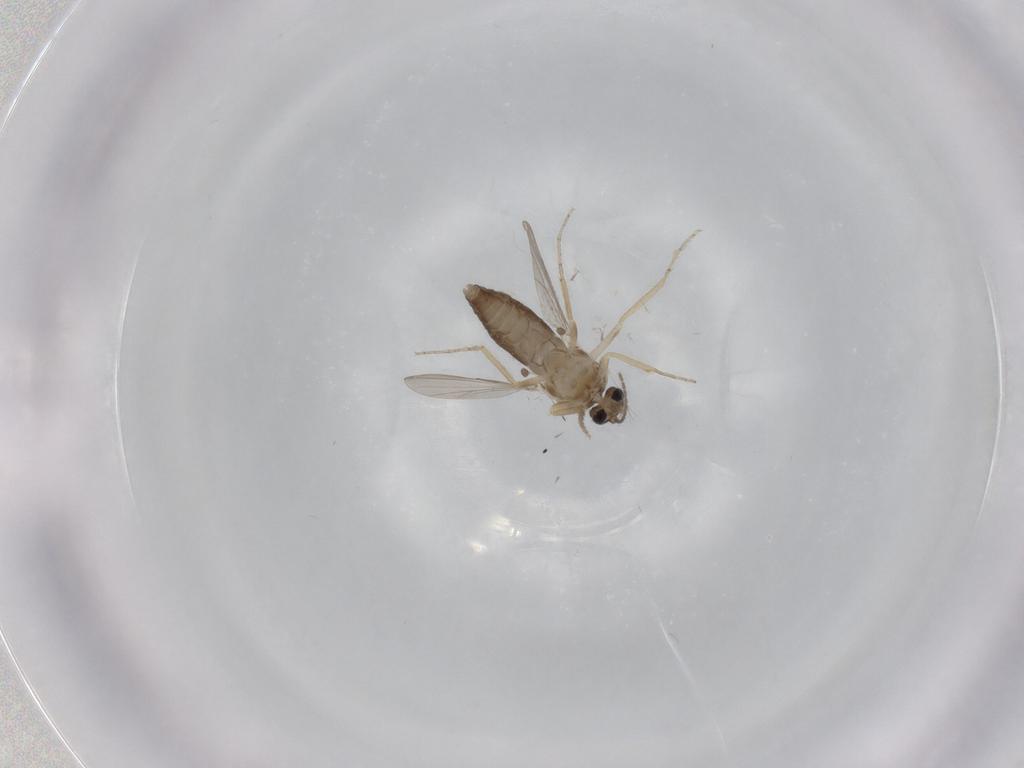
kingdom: Animalia
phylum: Arthropoda
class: Insecta
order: Diptera
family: Ceratopogonidae
